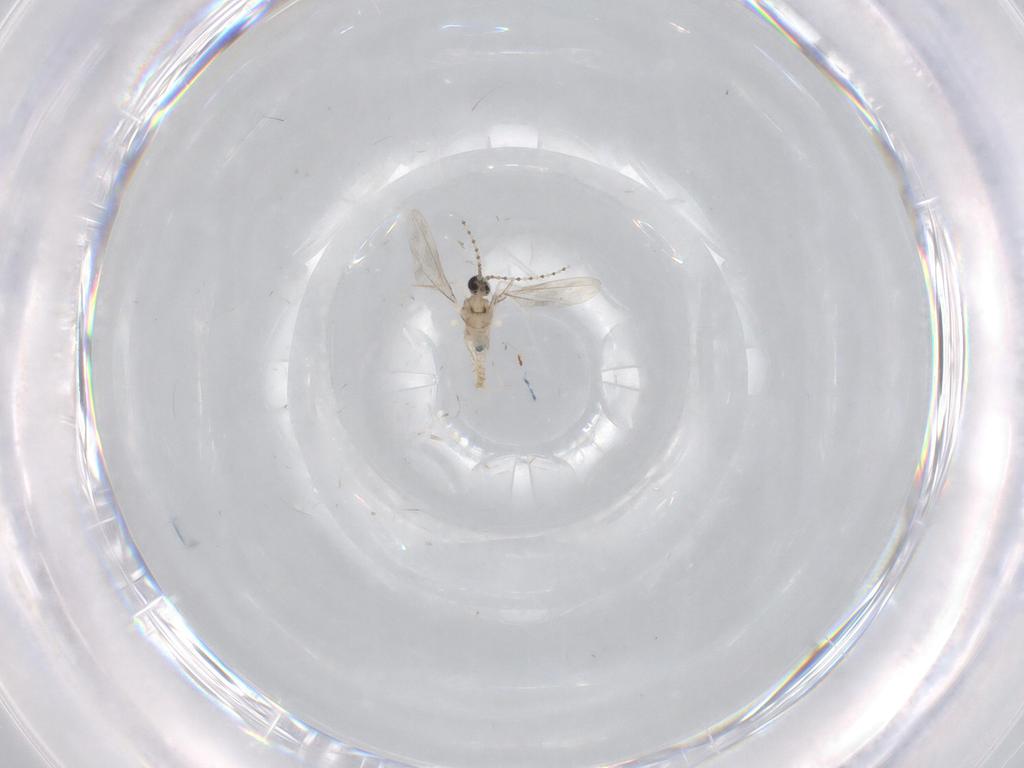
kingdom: Animalia
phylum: Arthropoda
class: Insecta
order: Diptera
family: Cecidomyiidae
